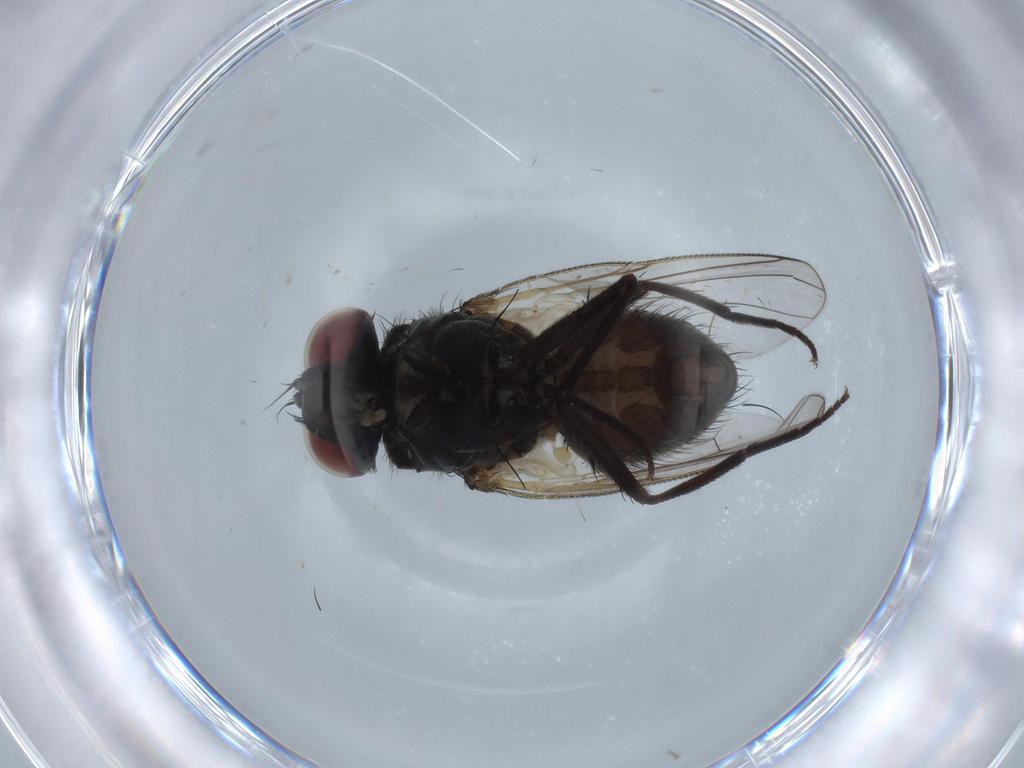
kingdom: Animalia
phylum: Arthropoda
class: Insecta
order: Diptera
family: Muscidae
